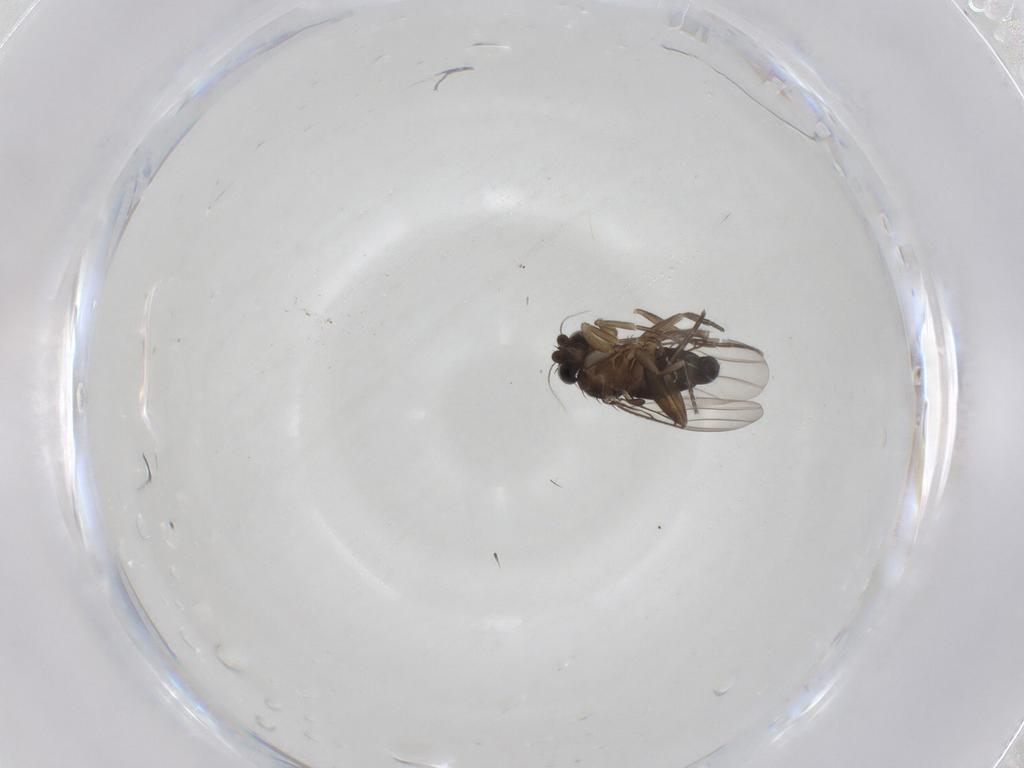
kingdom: Animalia
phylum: Arthropoda
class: Insecta
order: Diptera
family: Phoridae
